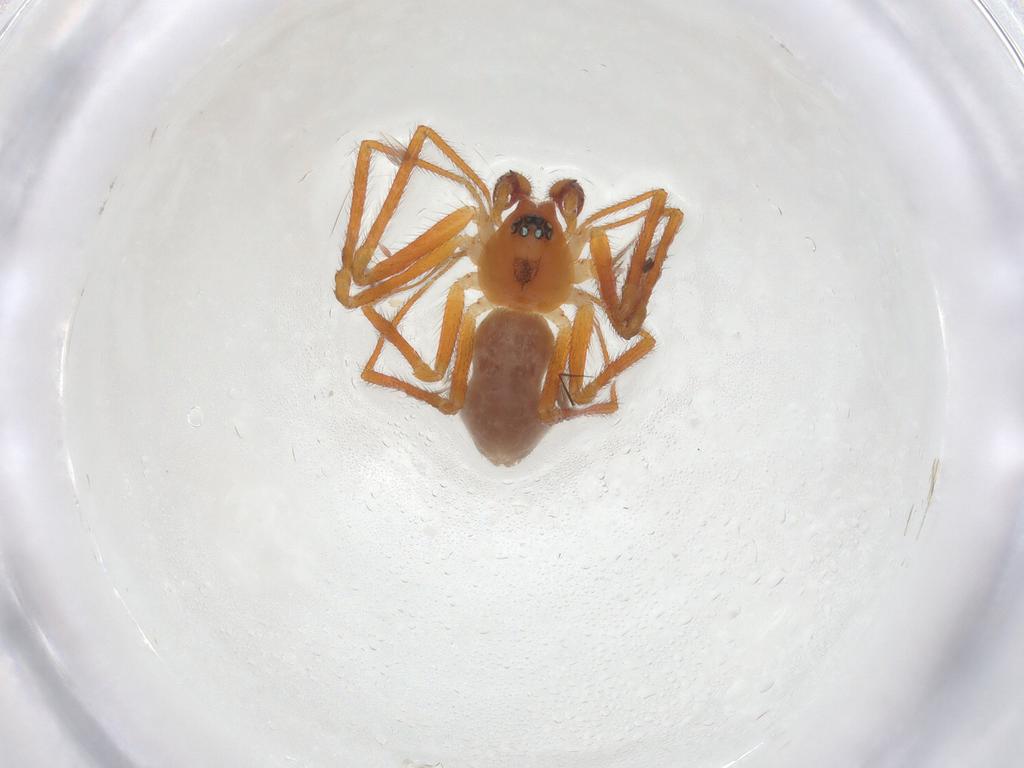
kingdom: Animalia
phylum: Arthropoda
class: Arachnida
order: Araneae
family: Linyphiidae
